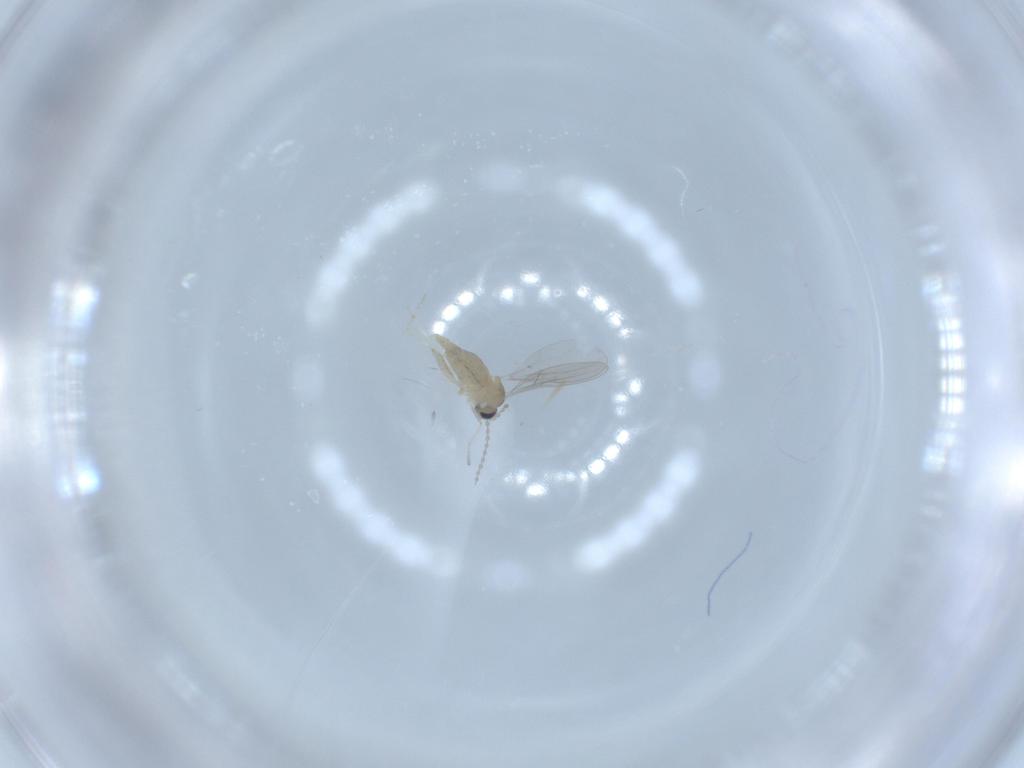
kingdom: Animalia
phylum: Arthropoda
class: Insecta
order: Diptera
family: Cecidomyiidae
